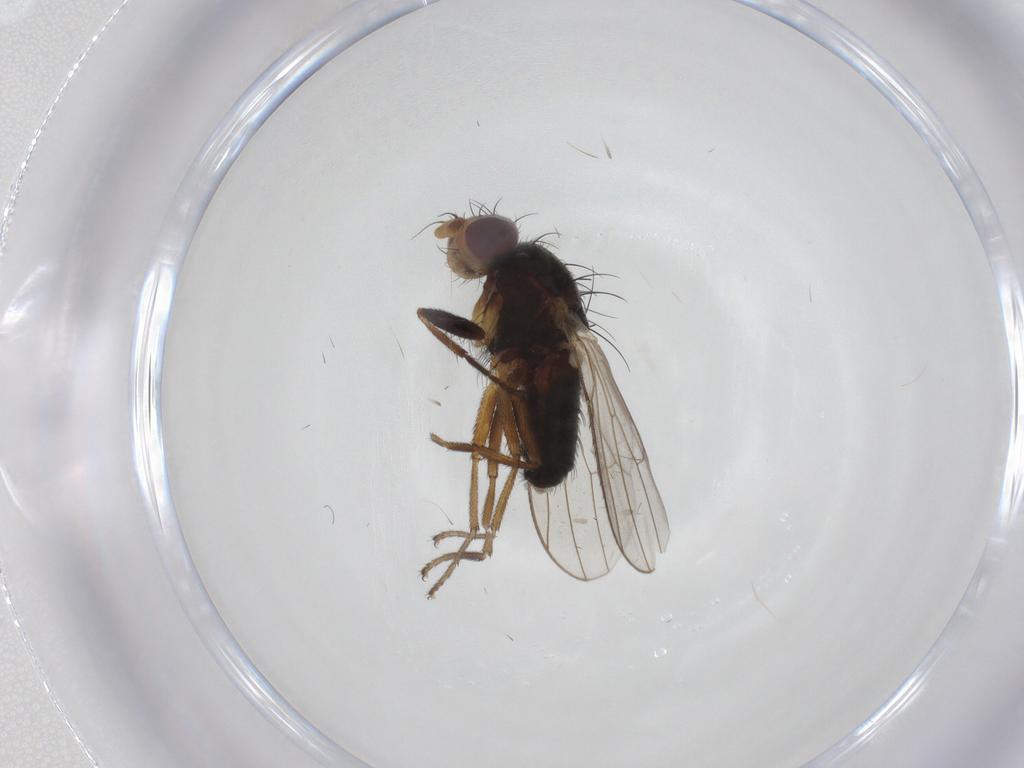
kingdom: Animalia
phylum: Arthropoda
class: Insecta
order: Diptera
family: Heleomyzidae
